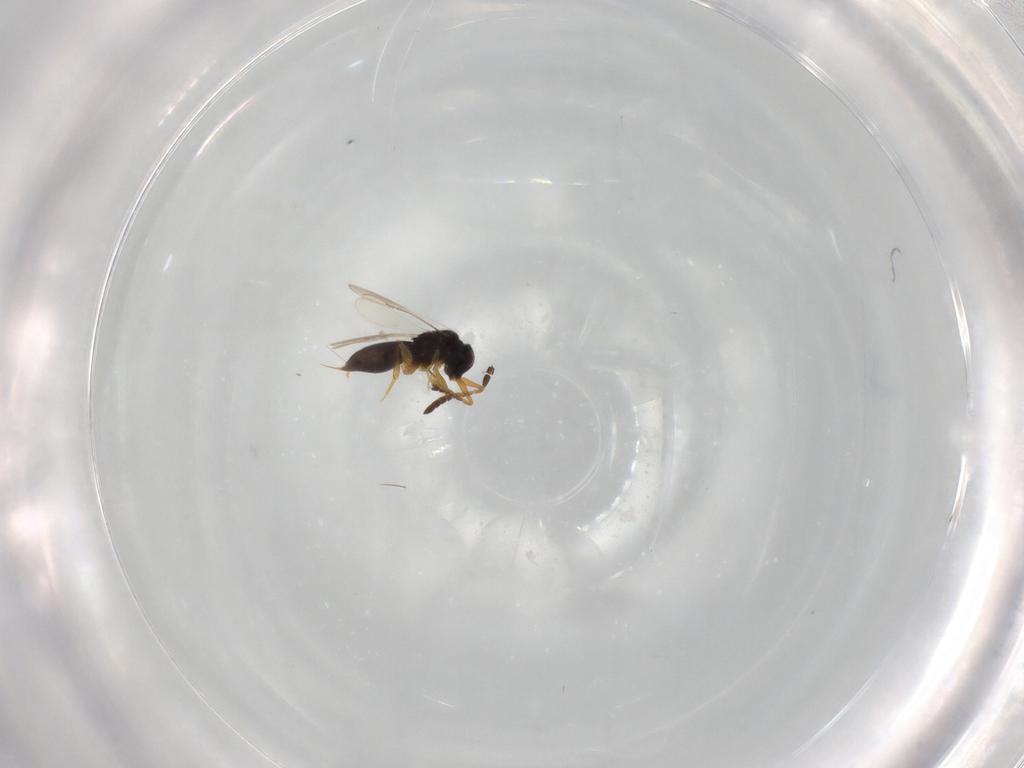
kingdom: Animalia
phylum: Arthropoda
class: Insecta
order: Hymenoptera
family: Ceraphronidae
